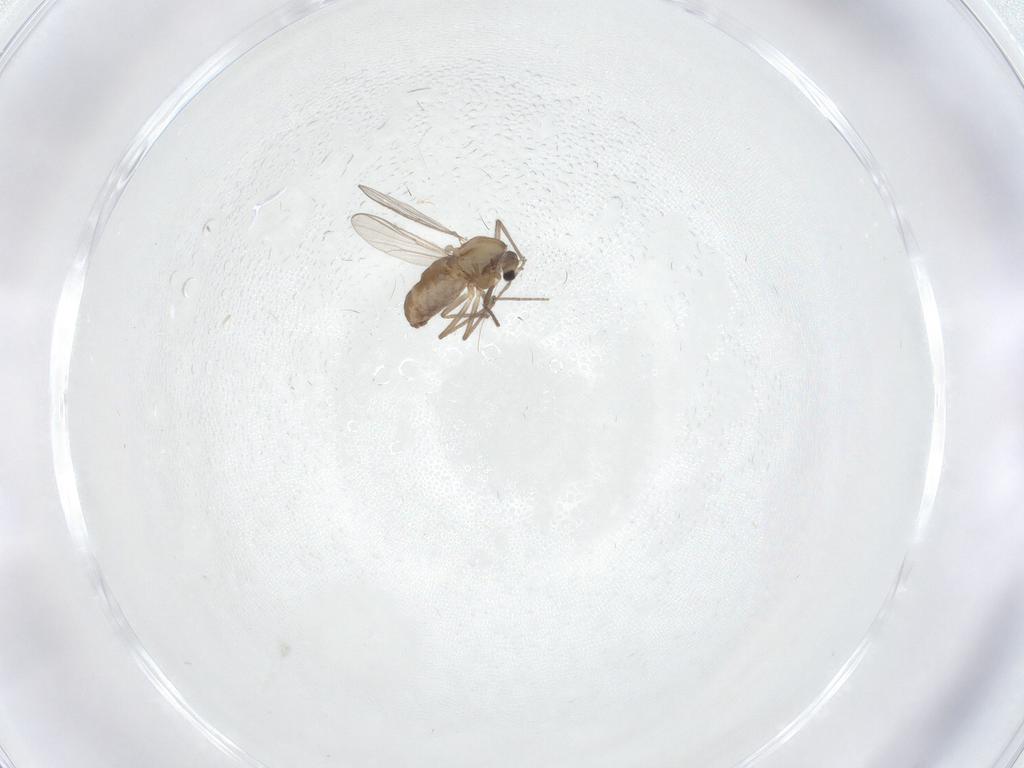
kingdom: Animalia
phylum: Arthropoda
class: Insecta
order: Diptera
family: Chironomidae
